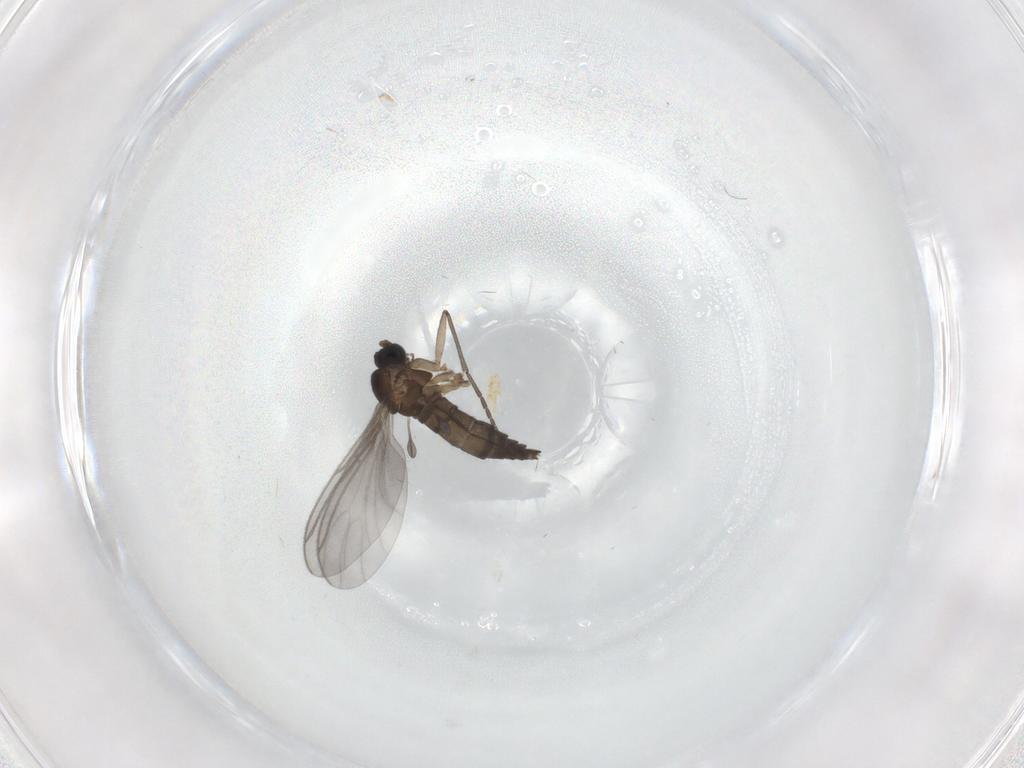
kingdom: Animalia
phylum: Arthropoda
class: Insecta
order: Diptera
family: Sciaridae
